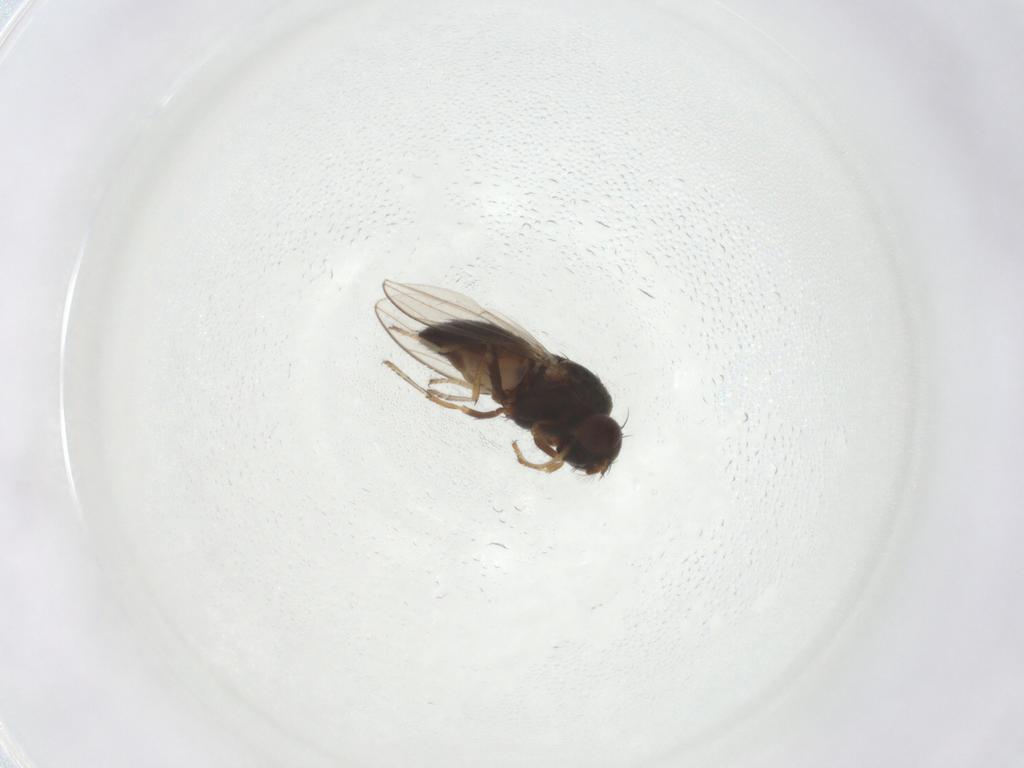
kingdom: Animalia
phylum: Arthropoda
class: Insecta
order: Diptera
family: Ephydridae
